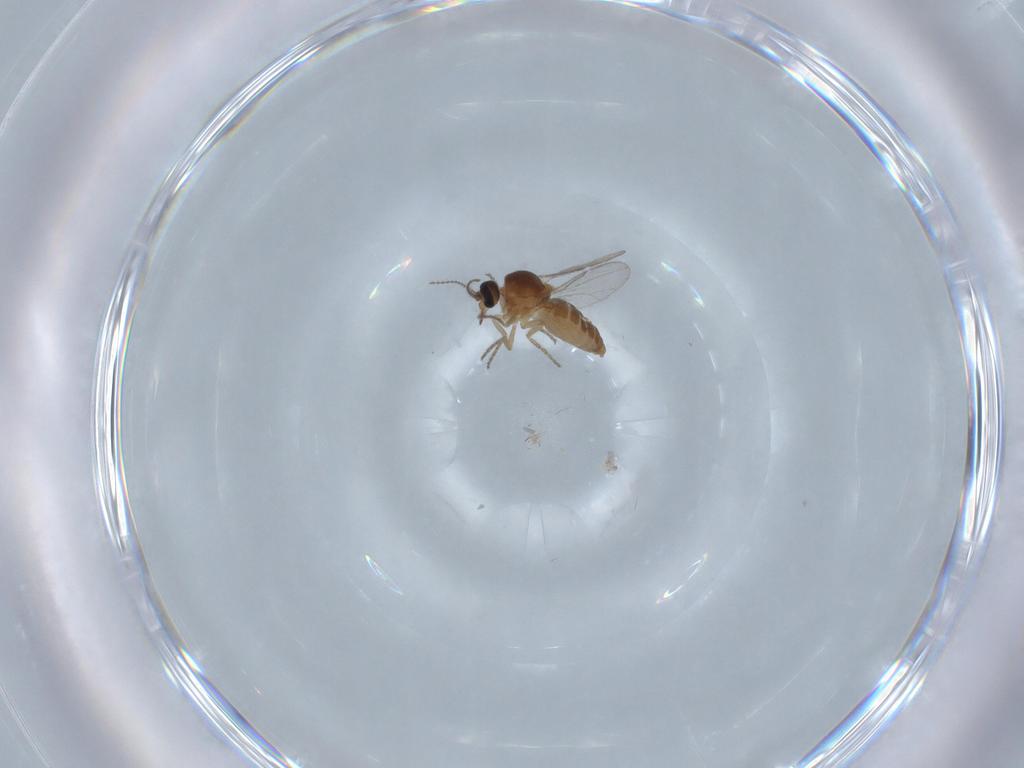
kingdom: Animalia
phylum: Arthropoda
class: Insecta
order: Diptera
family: Ceratopogonidae
